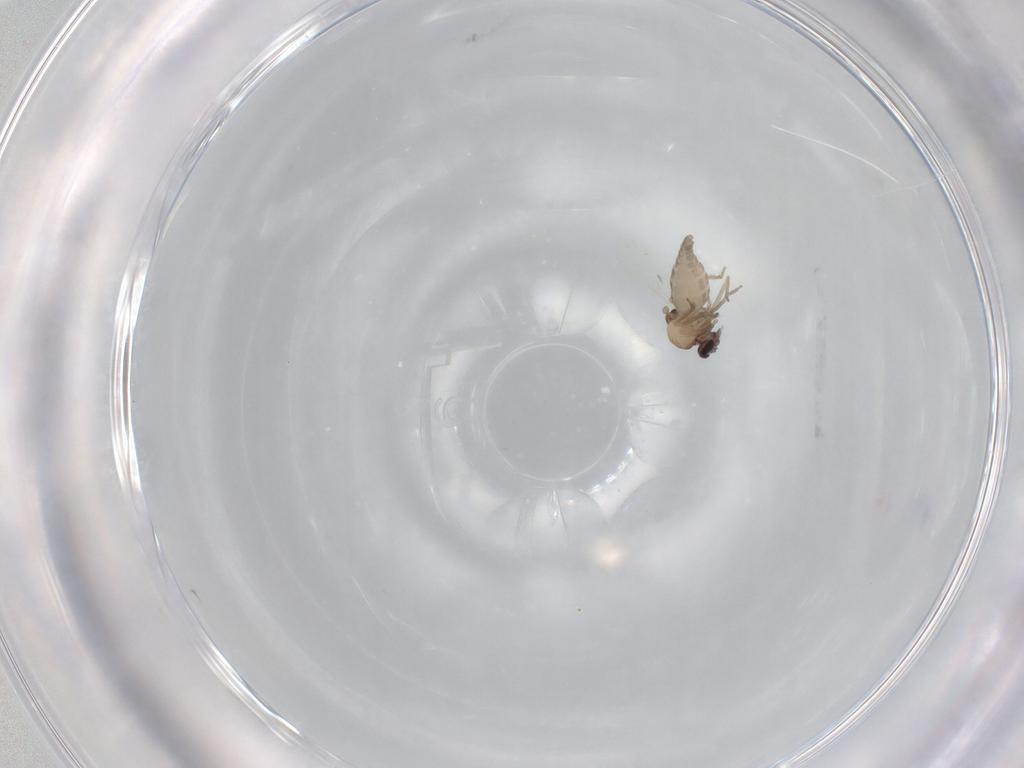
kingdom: Animalia
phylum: Arthropoda
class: Insecta
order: Diptera
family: Ceratopogonidae
